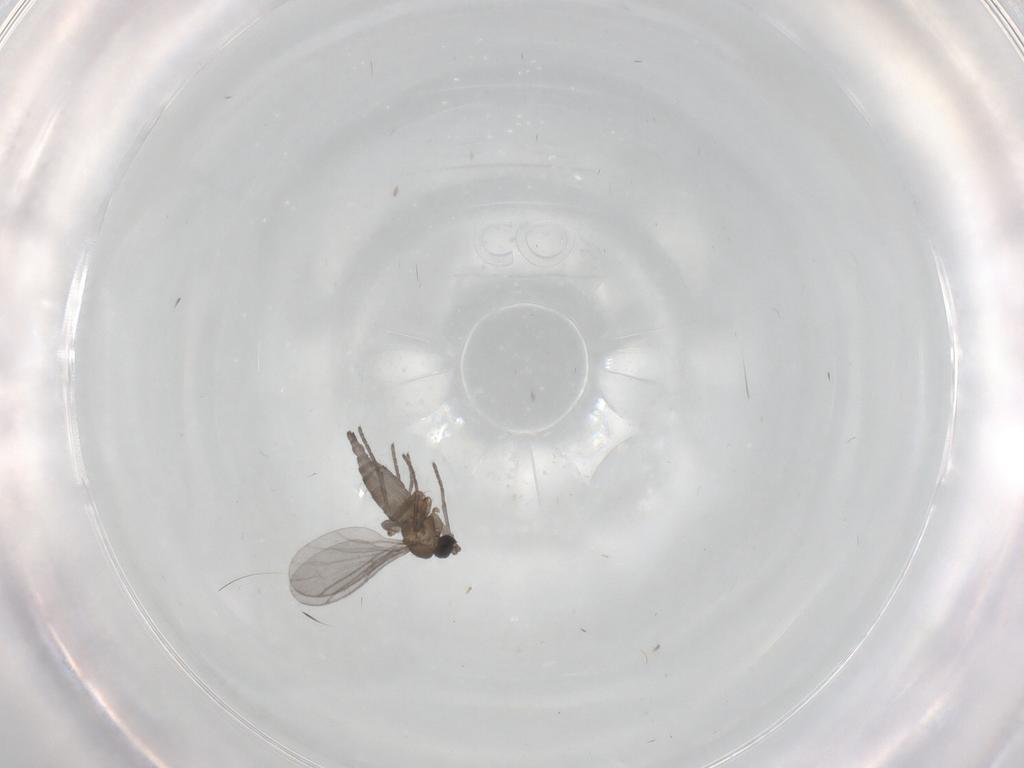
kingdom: Animalia
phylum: Arthropoda
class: Insecta
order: Diptera
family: Sciaridae
